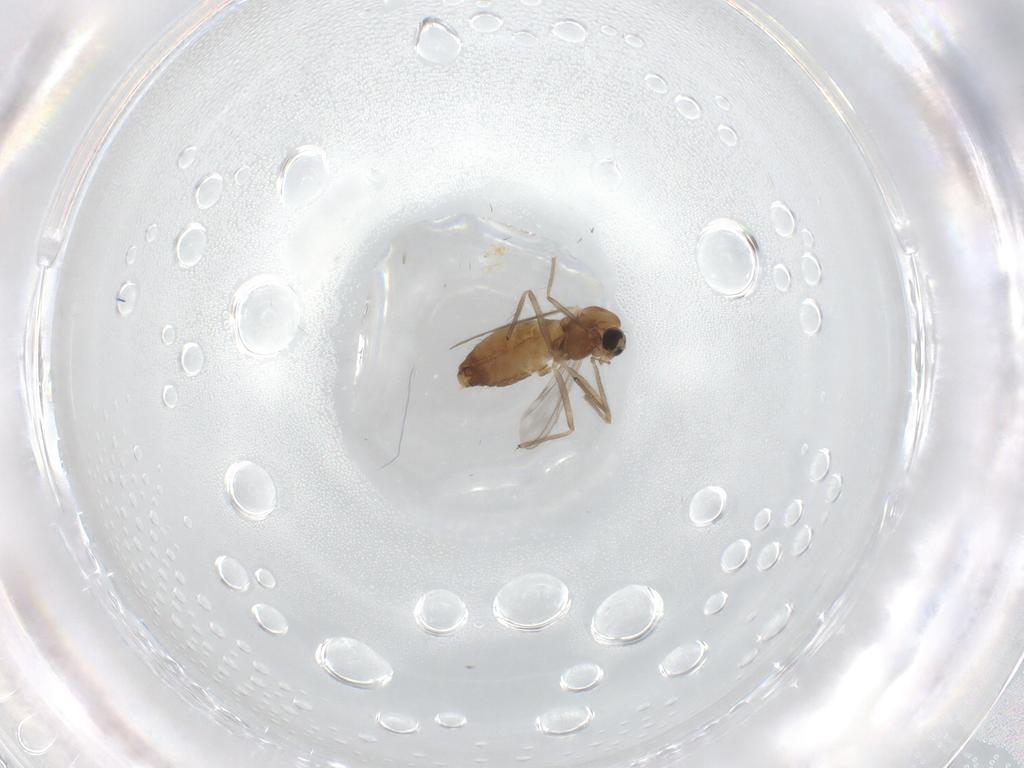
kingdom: Animalia
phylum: Arthropoda
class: Insecta
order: Diptera
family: Chironomidae
